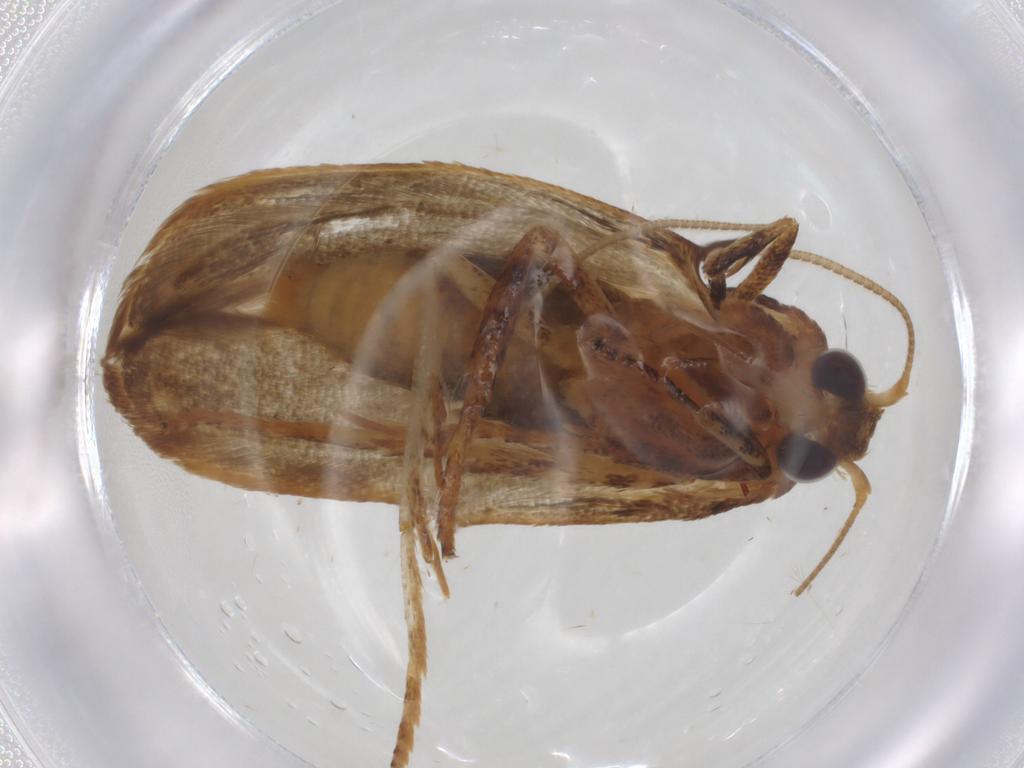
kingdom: Animalia
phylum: Arthropoda
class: Insecta
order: Lepidoptera
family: Blastobasidae
